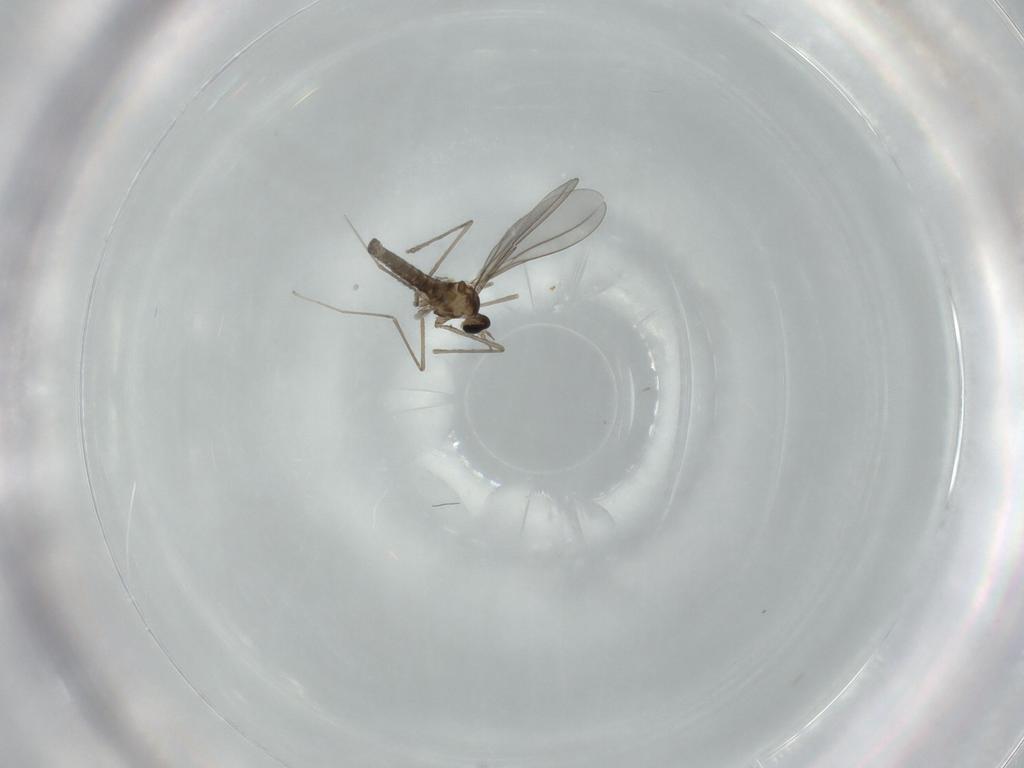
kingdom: Animalia
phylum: Arthropoda
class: Insecta
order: Diptera
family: Cecidomyiidae
